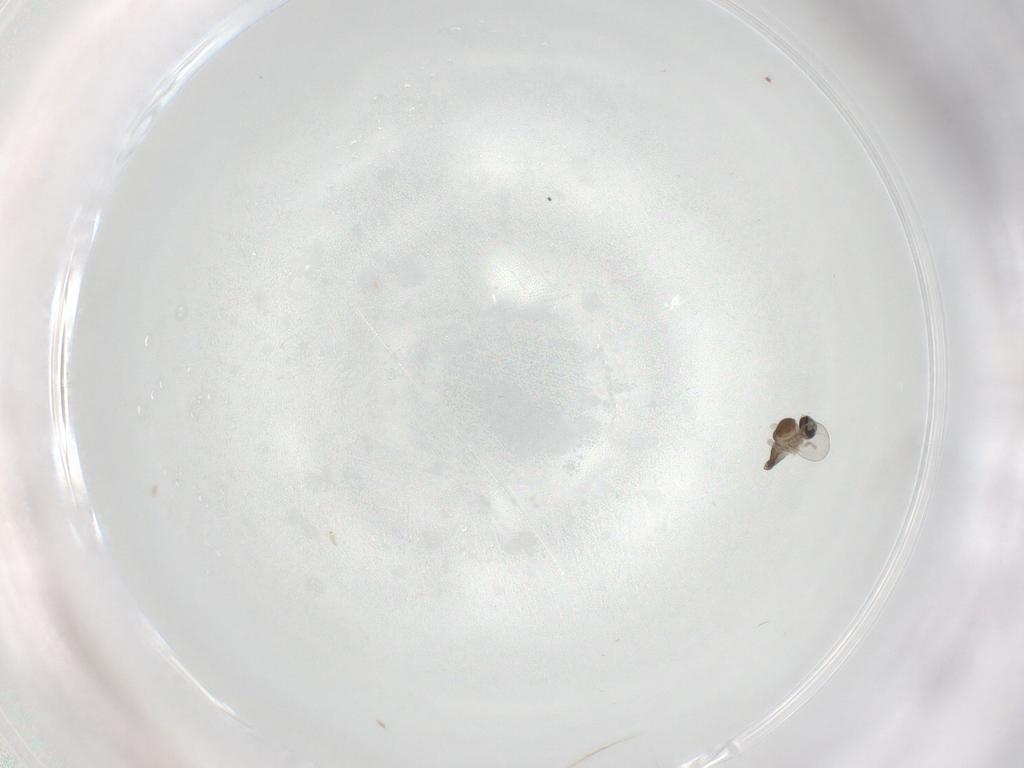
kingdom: Animalia
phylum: Arthropoda
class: Insecta
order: Diptera
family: Cecidomyiidae
